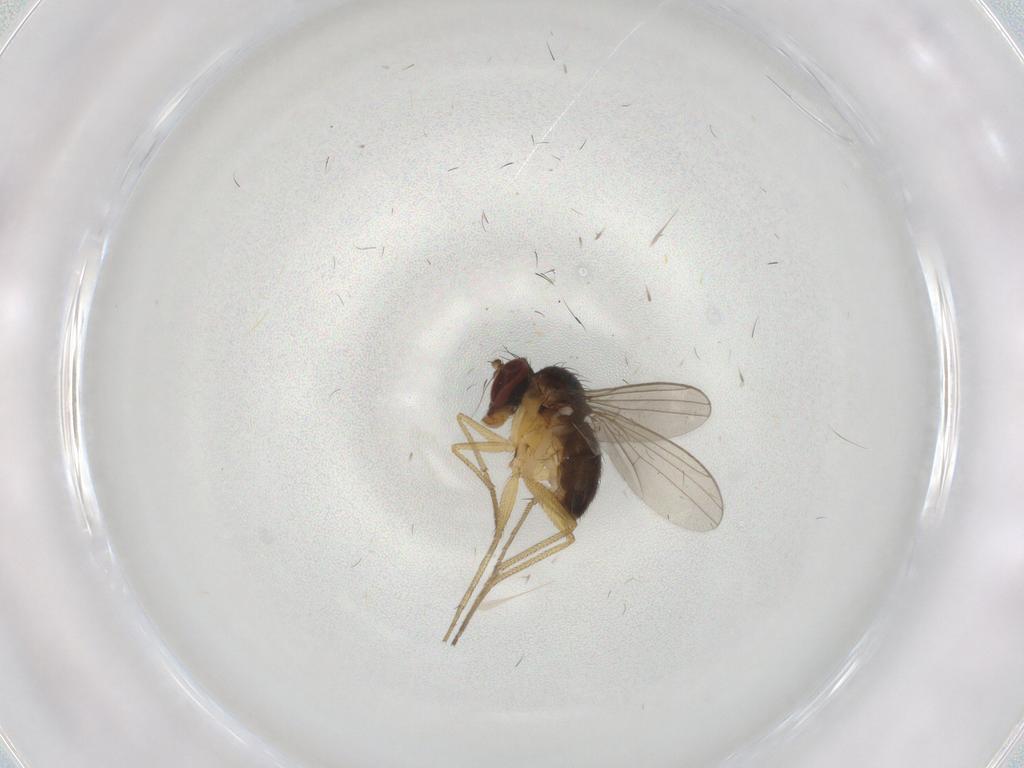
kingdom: Animalia
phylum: Arthropoda
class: Insecta
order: Diptera
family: Dolichopodidae
